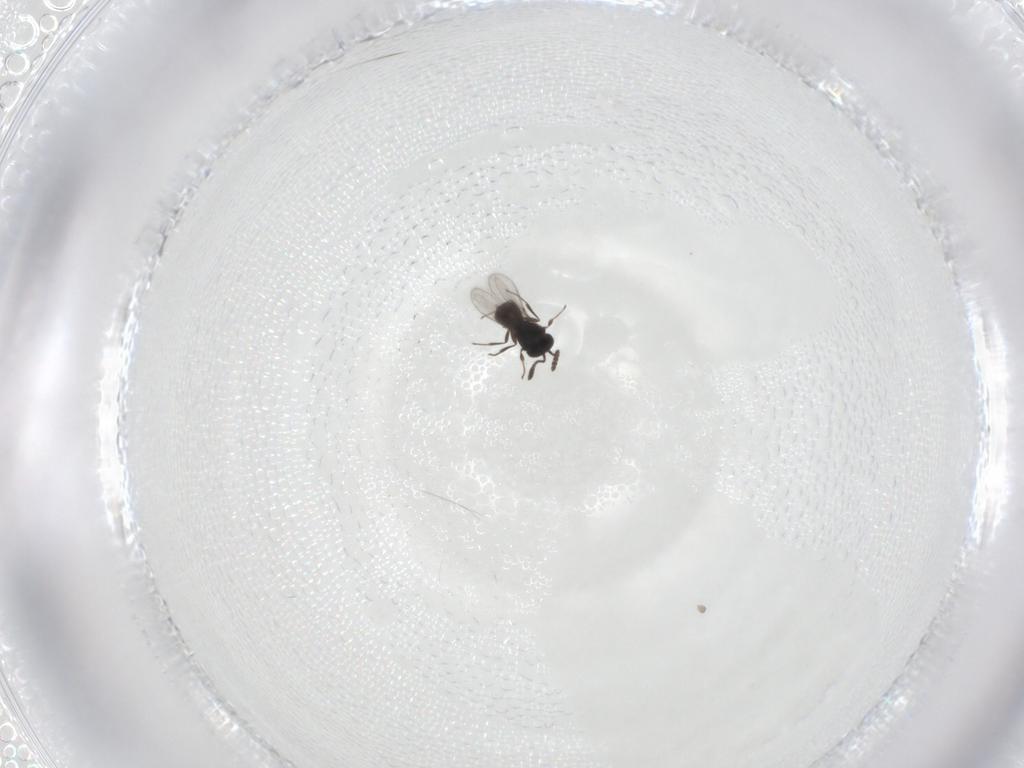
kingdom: Animalia
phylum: Arthropoda
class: Insecta
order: Hymenoptera
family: Scelionidae
